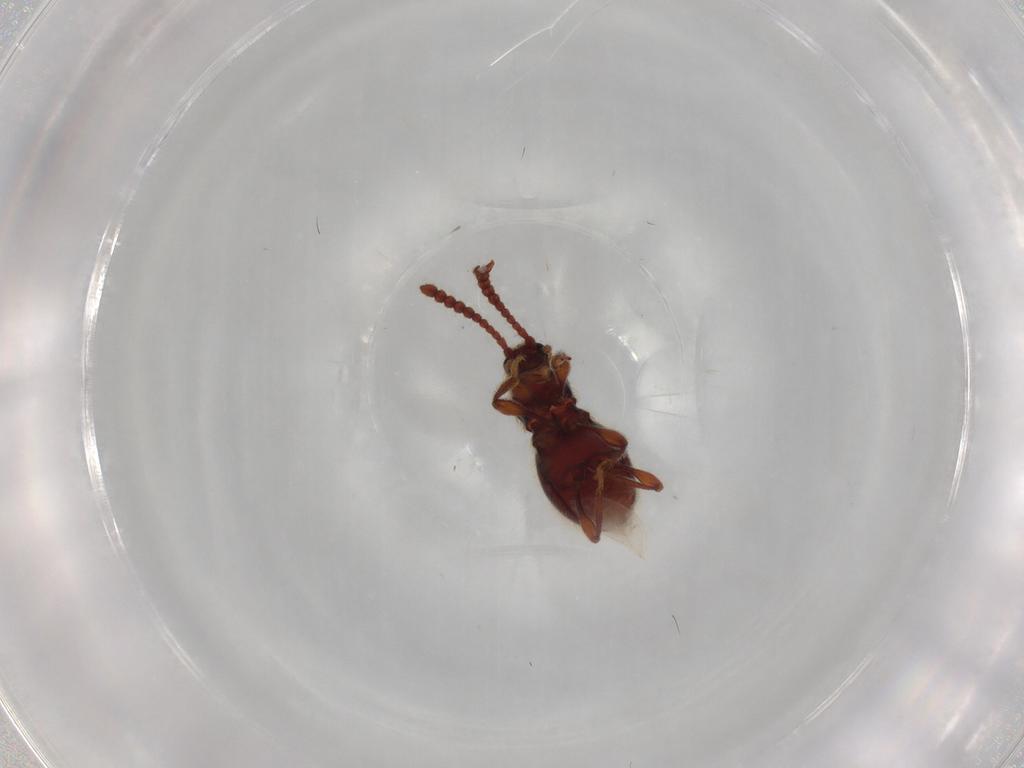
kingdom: Animalia
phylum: Arthropoda
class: Insecta
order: Coleoptera
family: Staphylinidae
